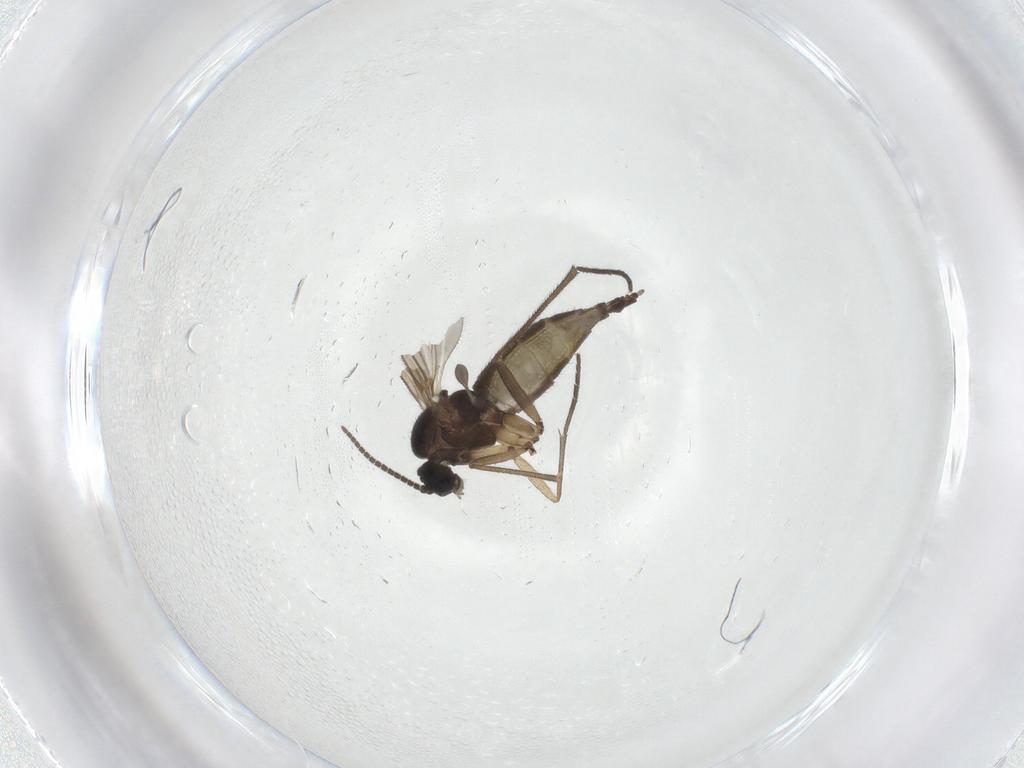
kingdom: Animalia
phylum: Arthropoda
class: Insecta
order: Diptera
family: Sciaridae
